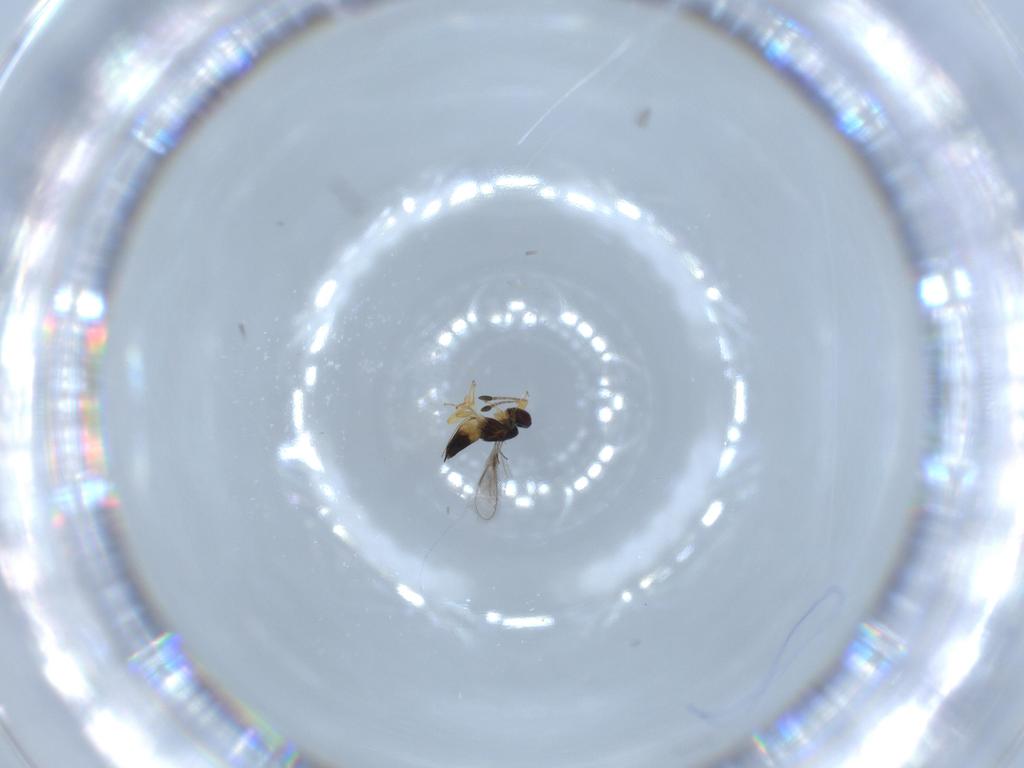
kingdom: Animalia
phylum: Arthropoda
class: Insecta
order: Hymenoptera
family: Mymaridae
